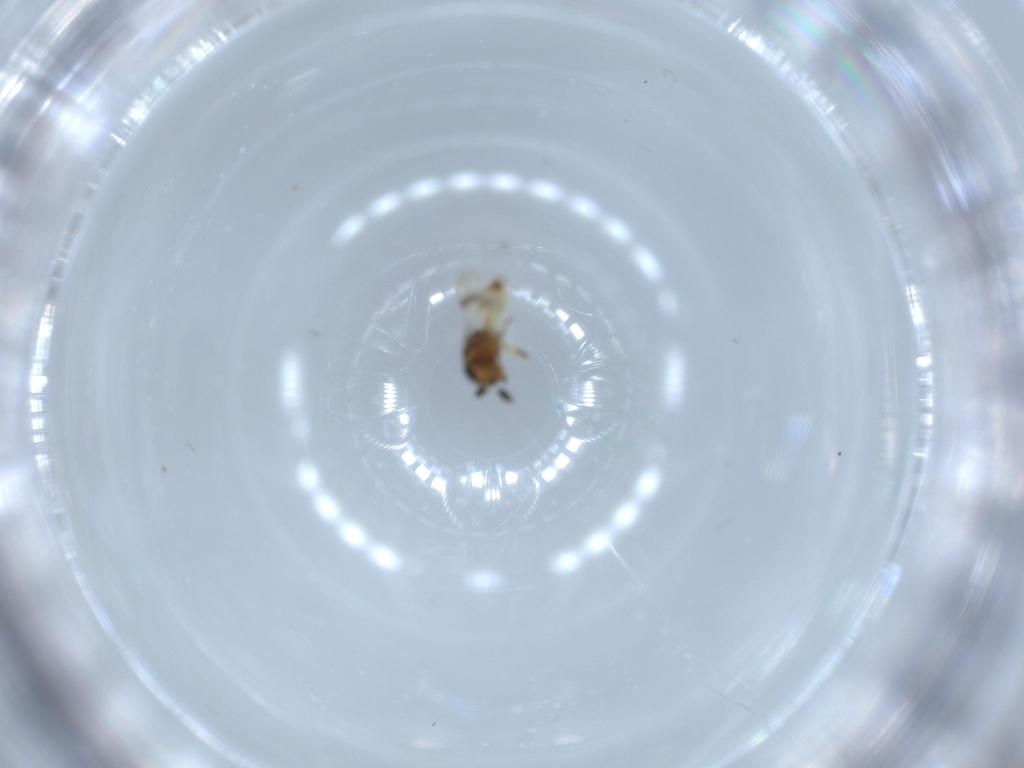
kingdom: Animalia
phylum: Arthropoda
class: Arachnida
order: Araneae
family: Pholcidae
